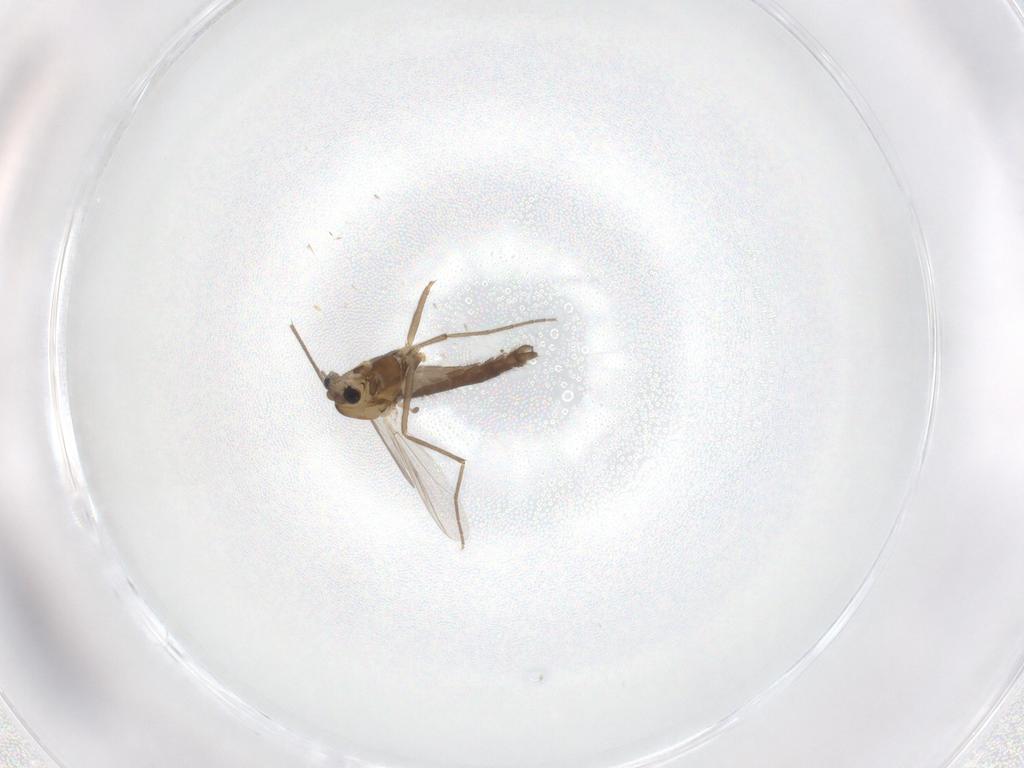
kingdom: Animalia
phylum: Arthropoda
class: Insecta
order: Diptera
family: Chironomidae
